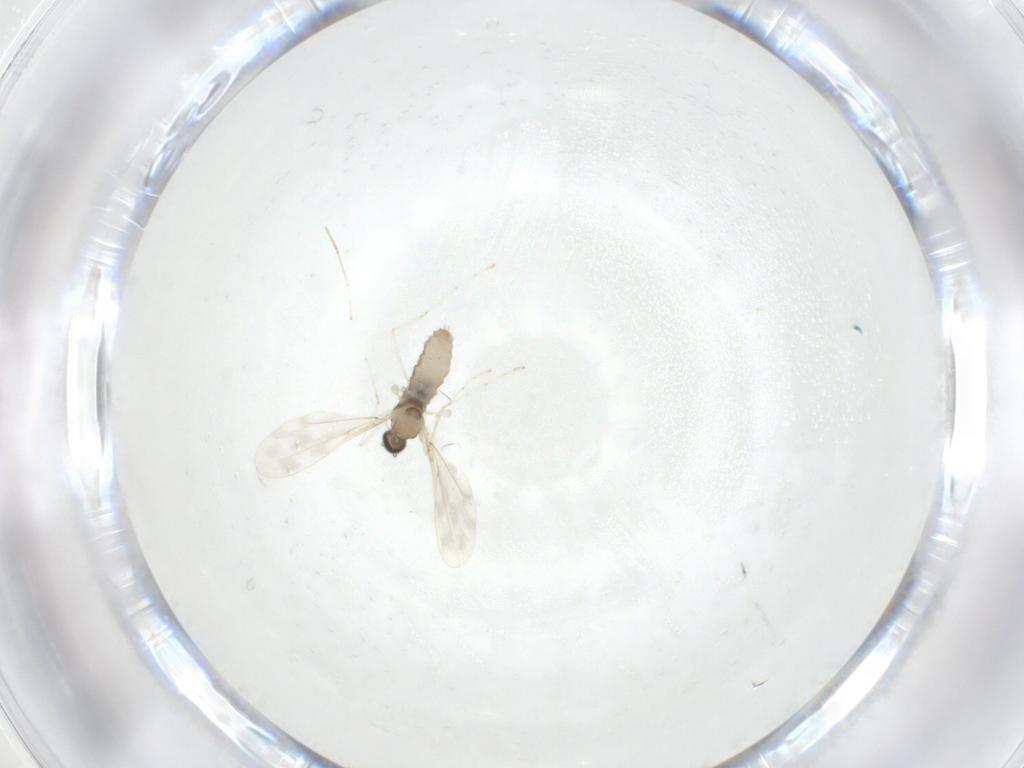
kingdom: Animalia
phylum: Arthropoda
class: Insecta
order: Diptera
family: Cecidomyiidae
